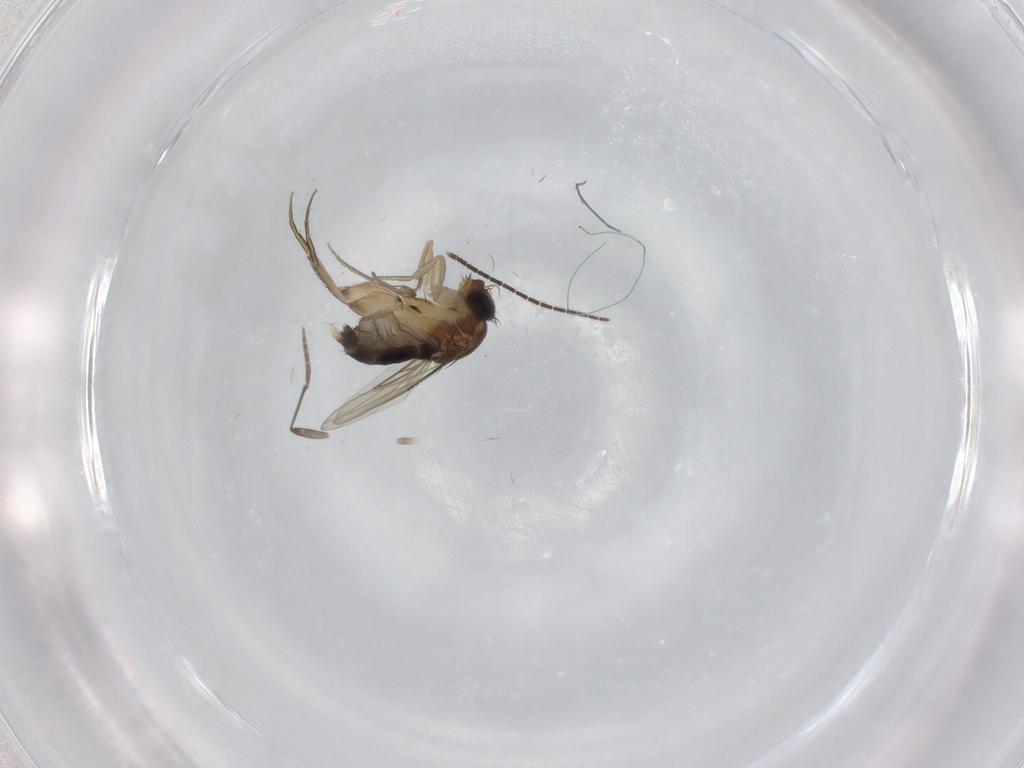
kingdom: Animalia
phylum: Arthropoda
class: Insecta
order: Diptera
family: Phoridae
